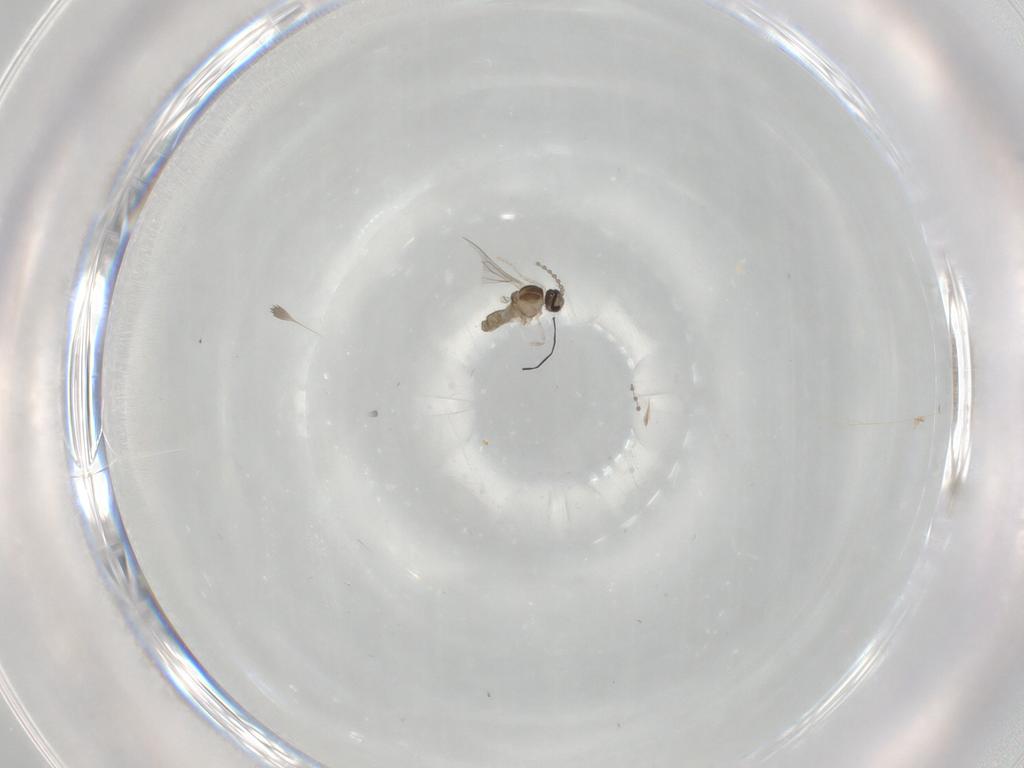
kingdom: Animalia
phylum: Arthropoda
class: Insecta
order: Diptera
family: Cecidomyiidae
